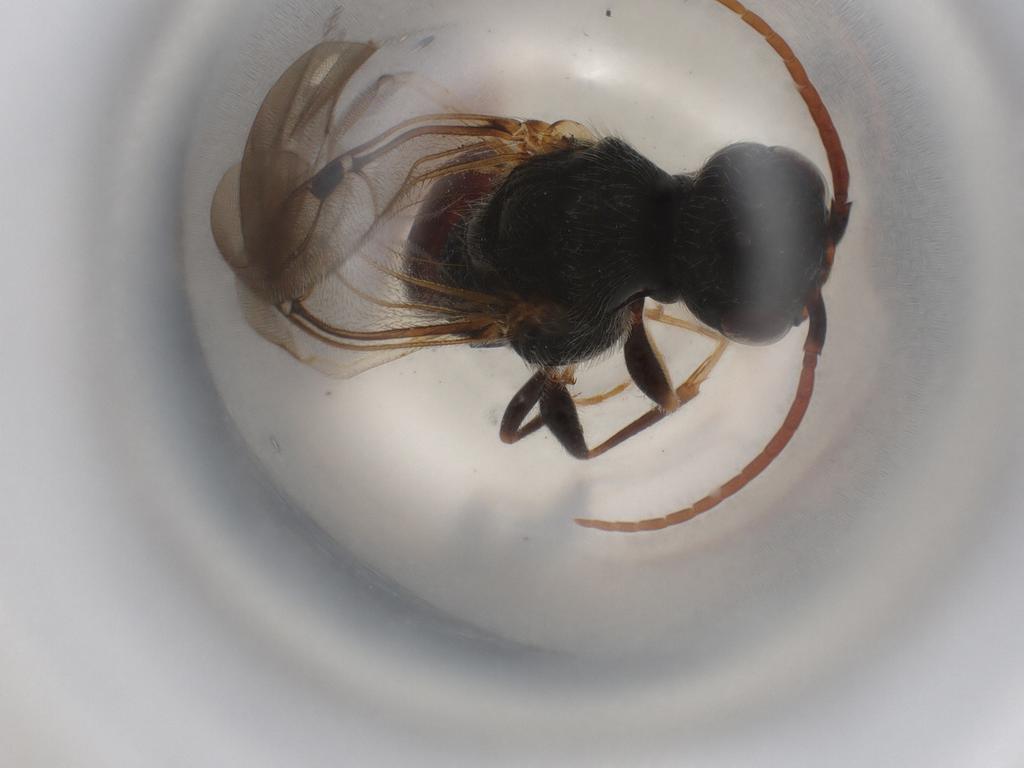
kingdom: Animalia
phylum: Arthropoda
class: Insecta
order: Hymenoptera
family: Bethylidae
